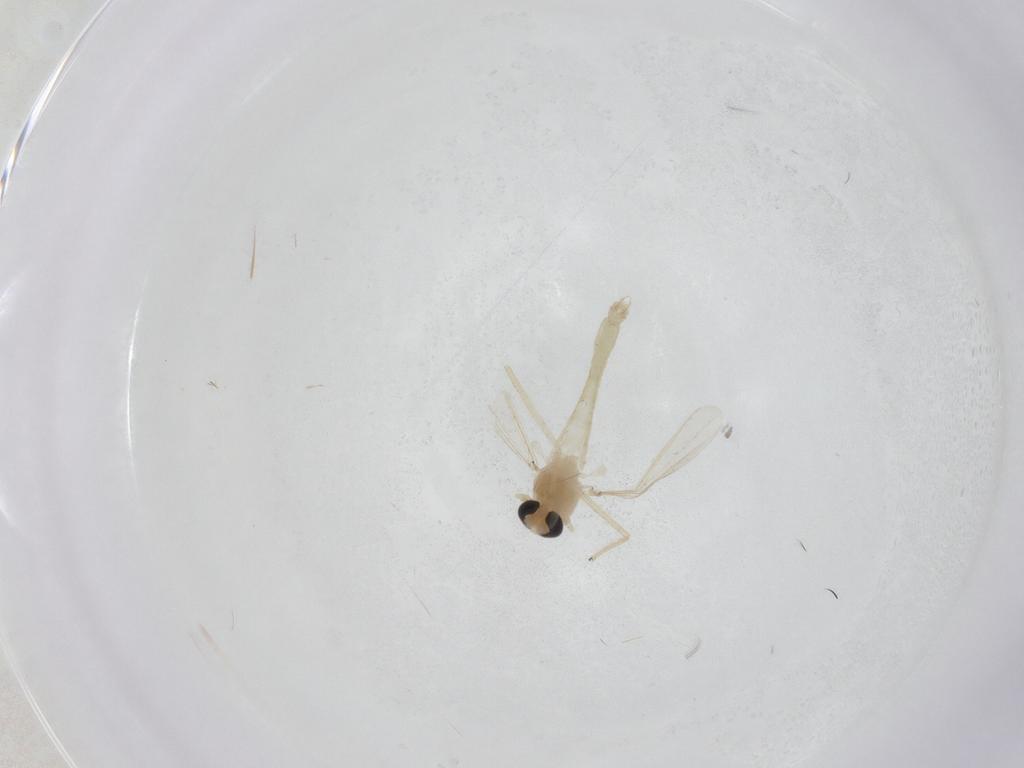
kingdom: Animalia
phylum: Arthropoda
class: Insecta
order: Diptera
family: Chironomidae
